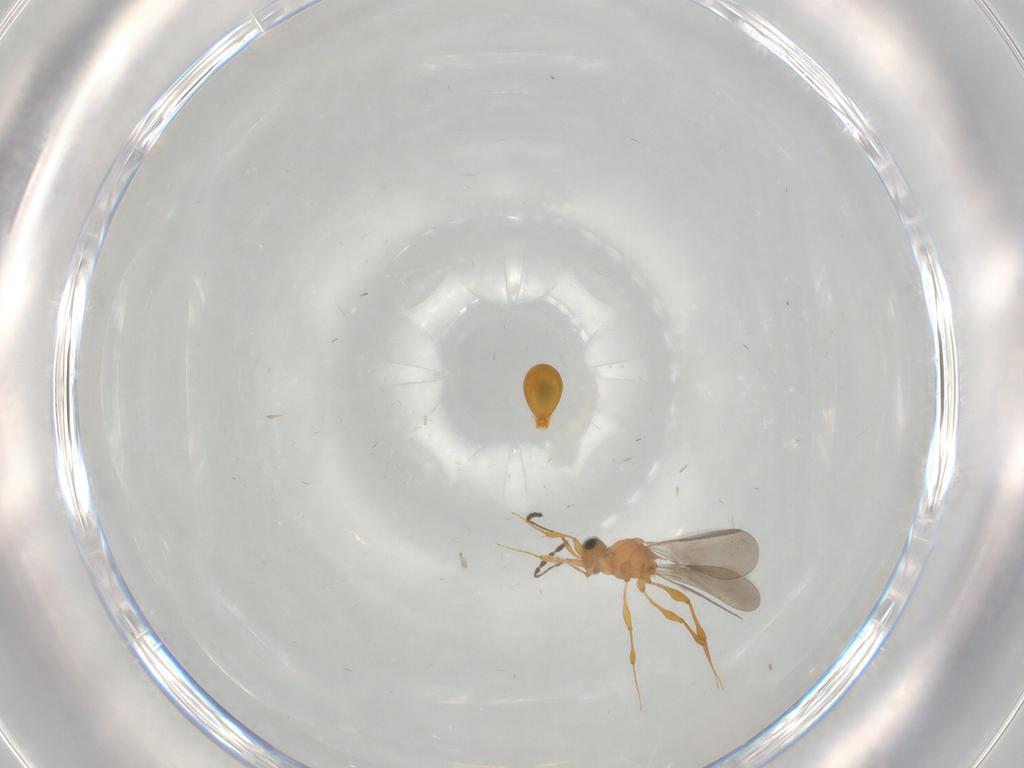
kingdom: Animalia
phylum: Arthropoda
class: Insecta
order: Hymenoptera
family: Platygastridae
